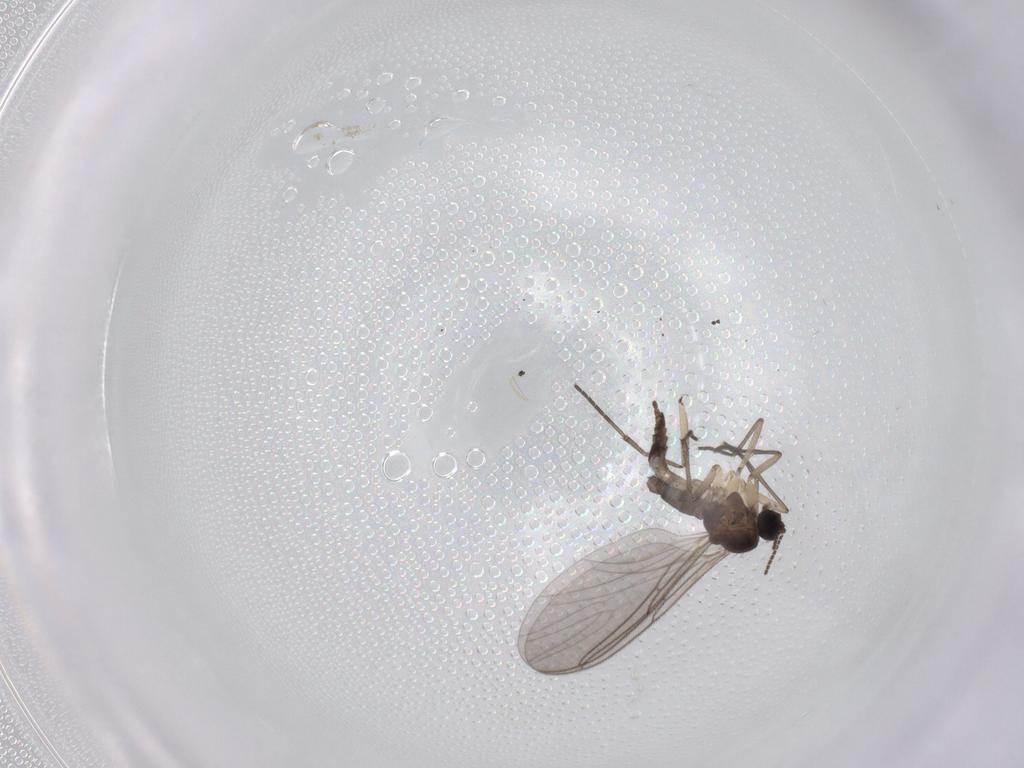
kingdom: Animalia
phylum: Arthropoda
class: Insecta
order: Diptera
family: Sciaridae
